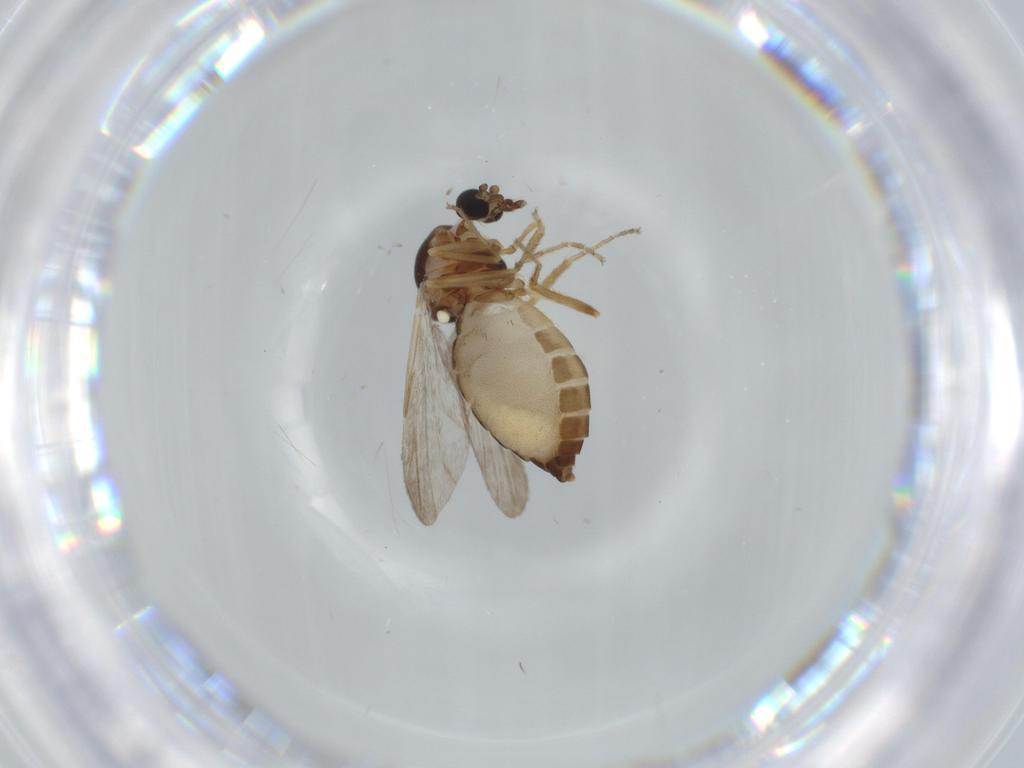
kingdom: Animalia
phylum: Arthropoda
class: Insecta
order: Diptera
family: Ceratopogonidae
